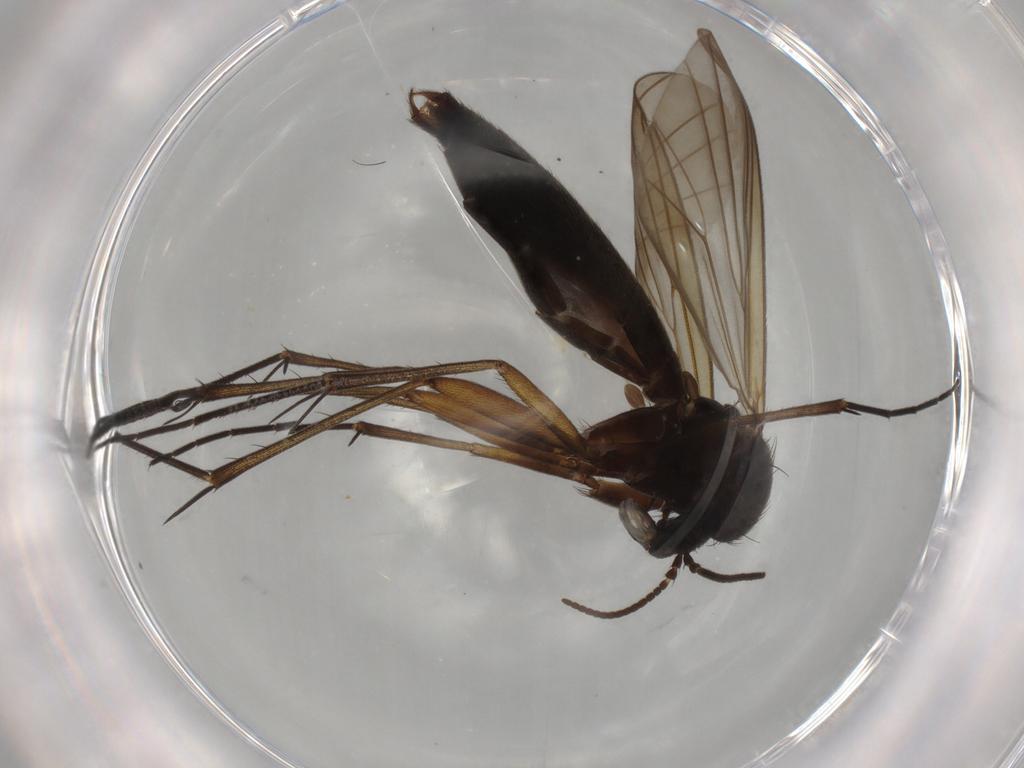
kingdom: Animalia
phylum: Arthropoda
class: Insecta
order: Diptera
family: Mycetophilidae
